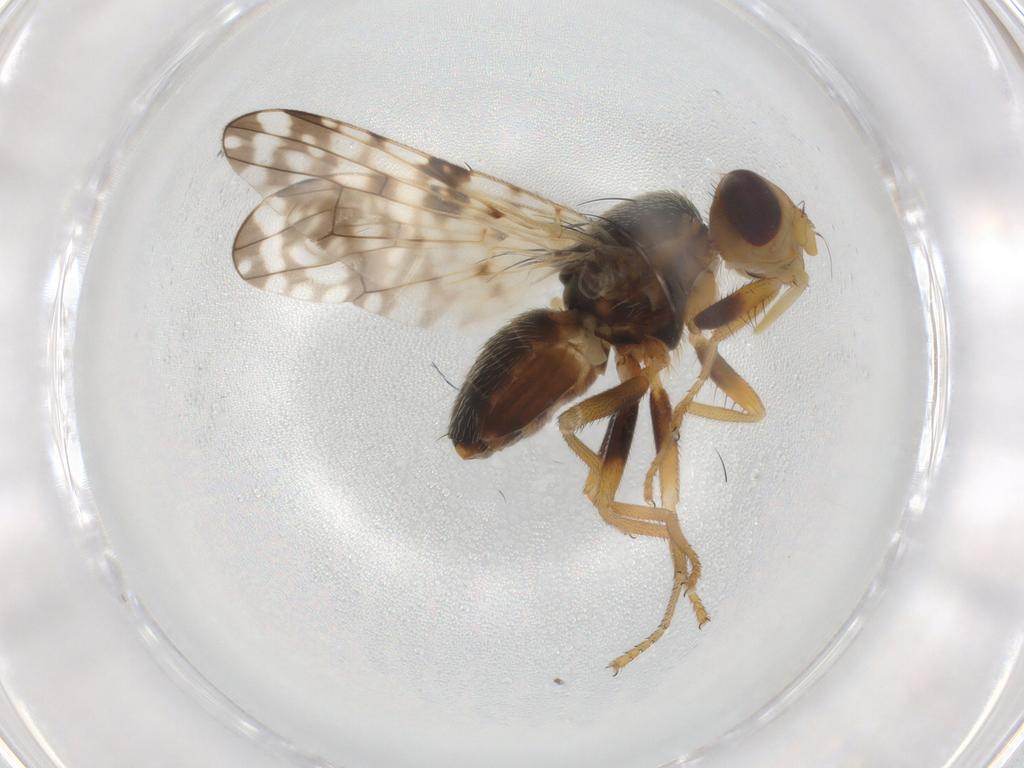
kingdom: Animalia
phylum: Arthropoda
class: Insecta
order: Diptera
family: Tephritidae
